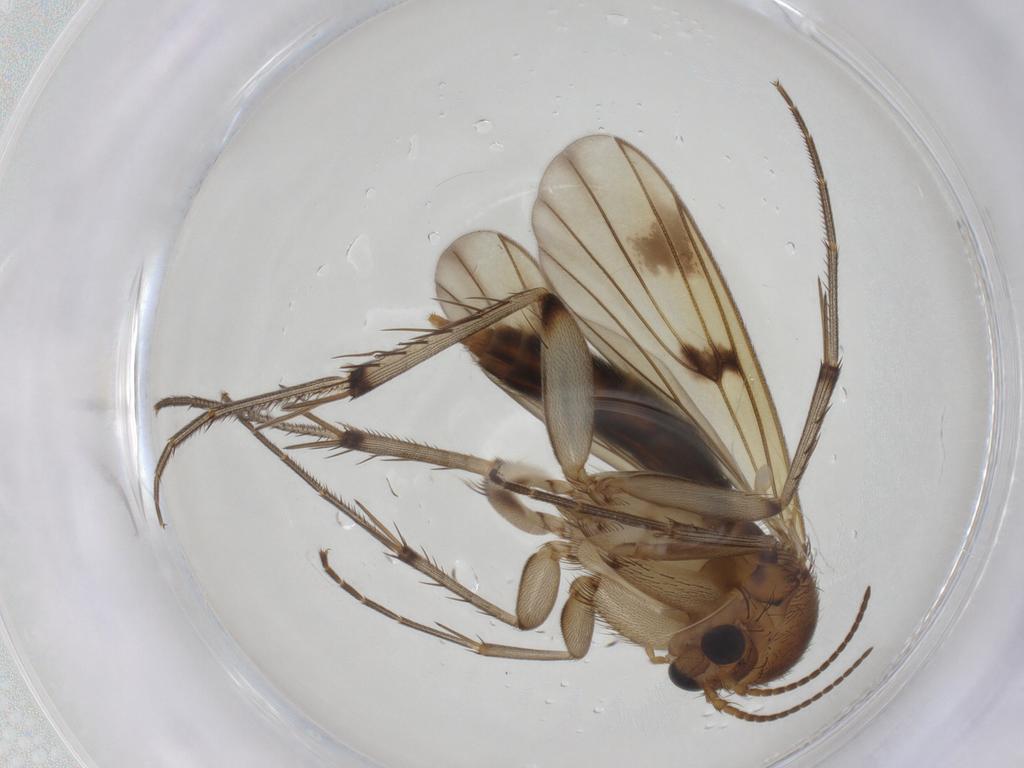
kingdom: Animalia
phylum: Arthropoda
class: Insecta
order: Diptera
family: Mycetophilidae
